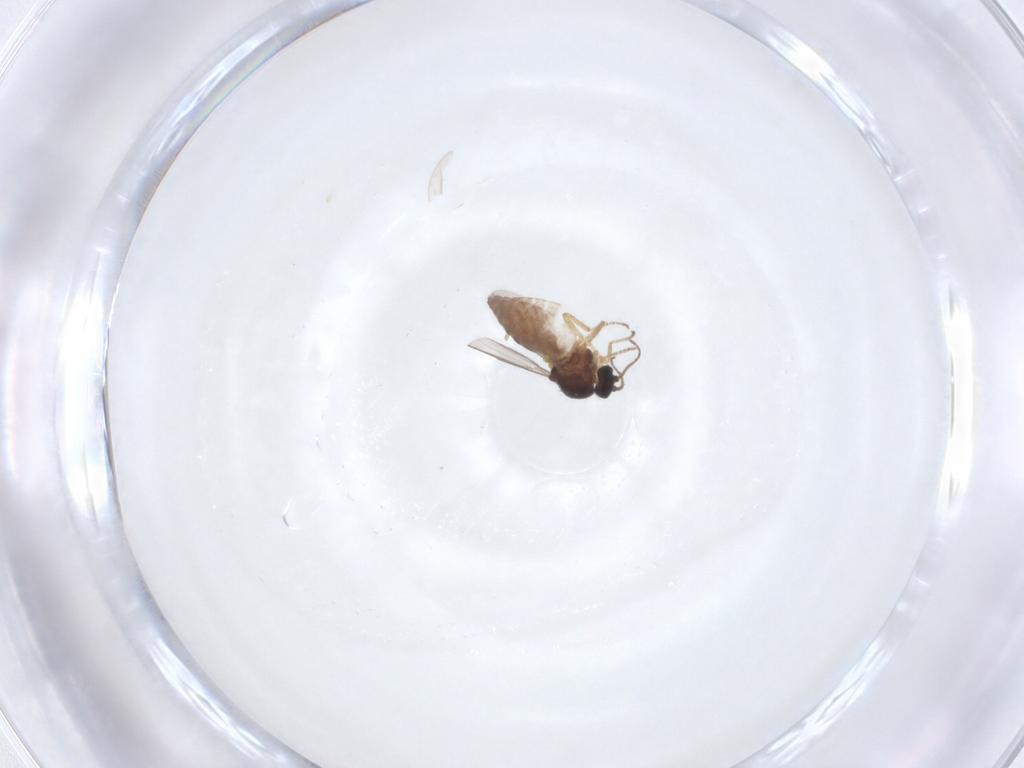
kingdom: Animalia
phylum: Arthropoda
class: Insecta
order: Diptera
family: Ceratopogonidae
